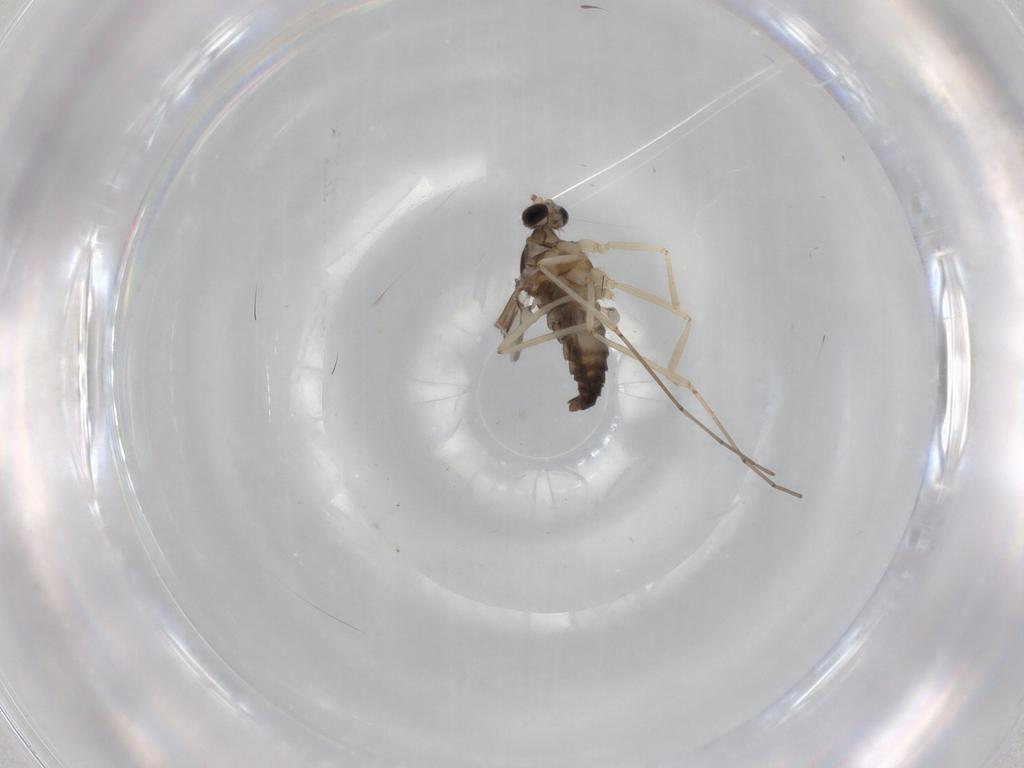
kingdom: Animalia
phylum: Arthropoda
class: Insecta
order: Diptera
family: Cecidomyiidae
